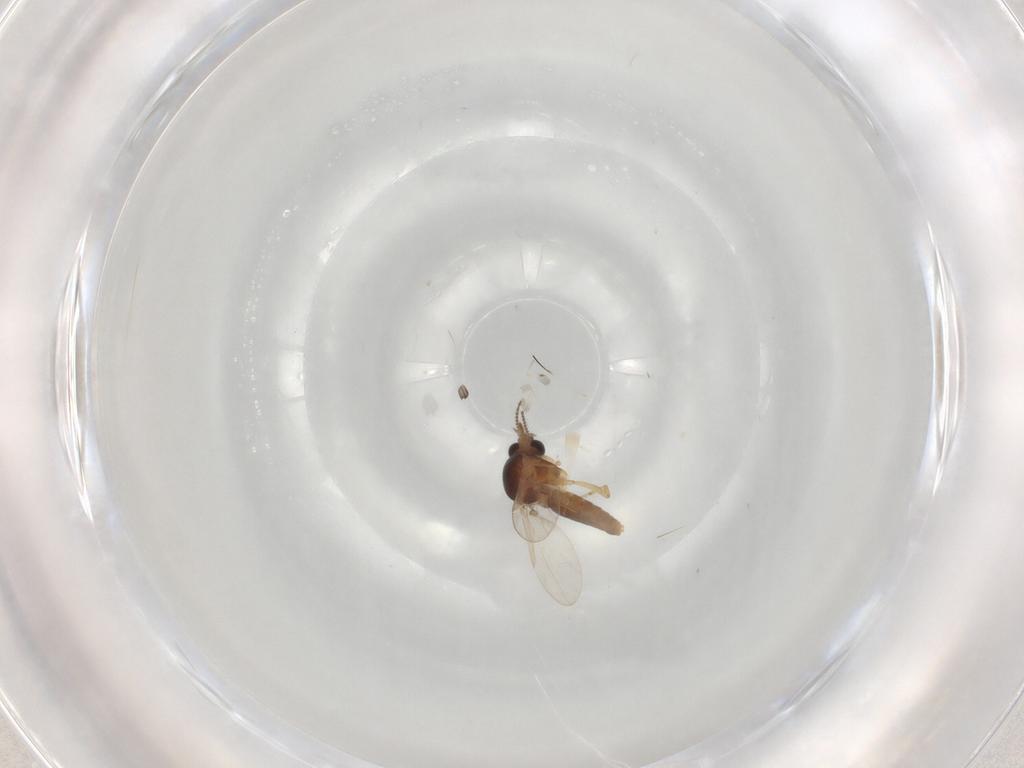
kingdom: Animalia
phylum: Arthropoda
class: Insecta
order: Diptera
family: Ceratopogonidae
